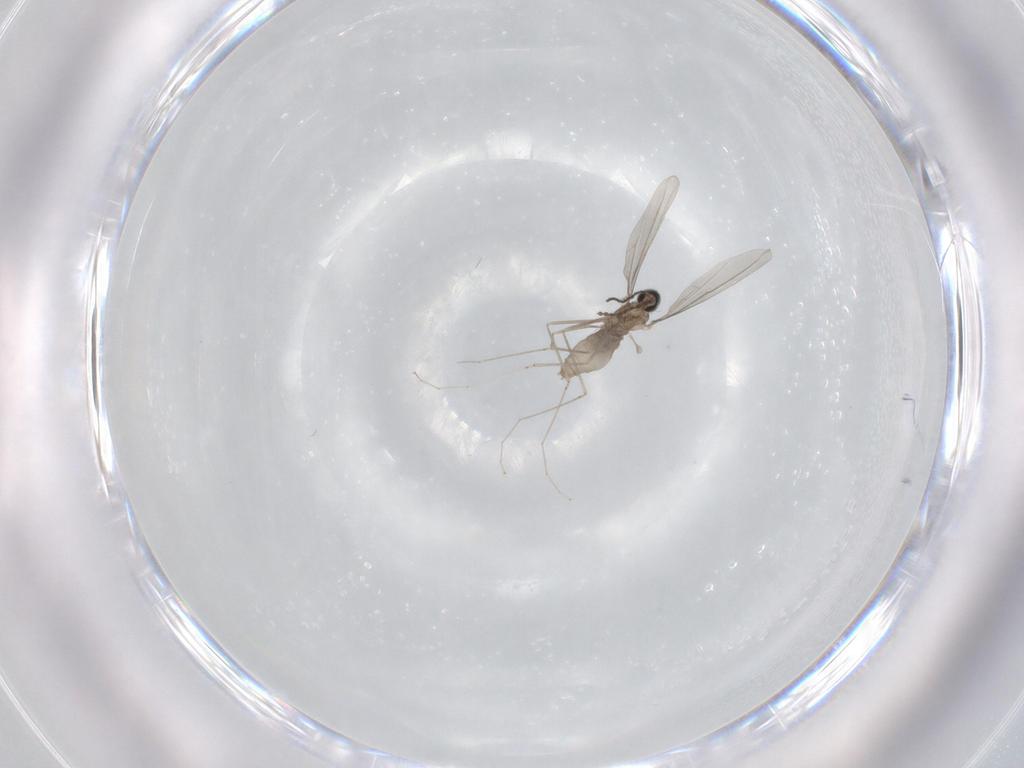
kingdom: Animalia
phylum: Arthropoda
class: Insecta
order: Diptera
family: Cecidomyiidae
